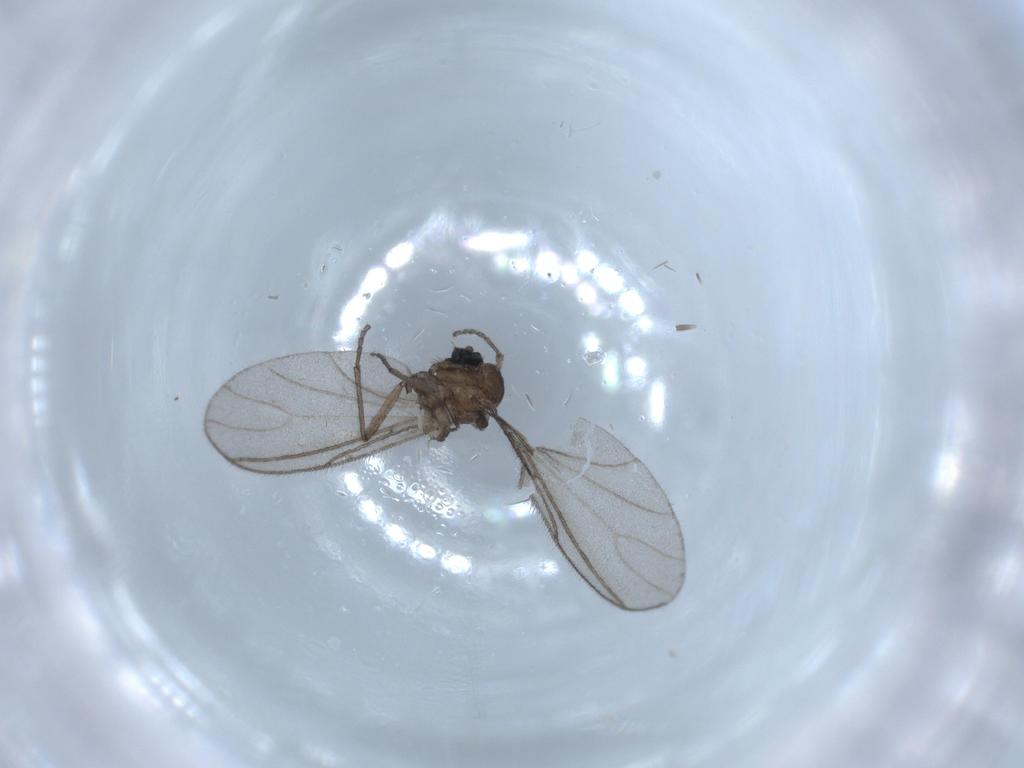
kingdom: Animalia
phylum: Arthropoda
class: Insecta
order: Diptera
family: Sciaridae
